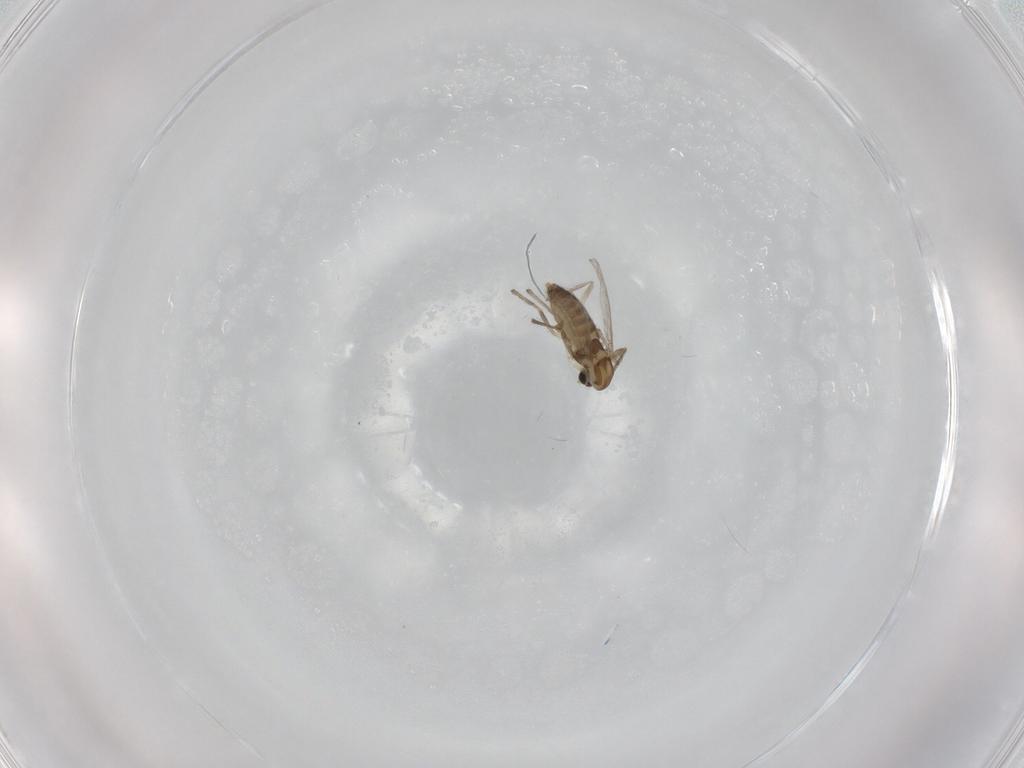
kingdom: Animalia
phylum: Arthropoda
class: Insecta
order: Diptera
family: Chironomidae
